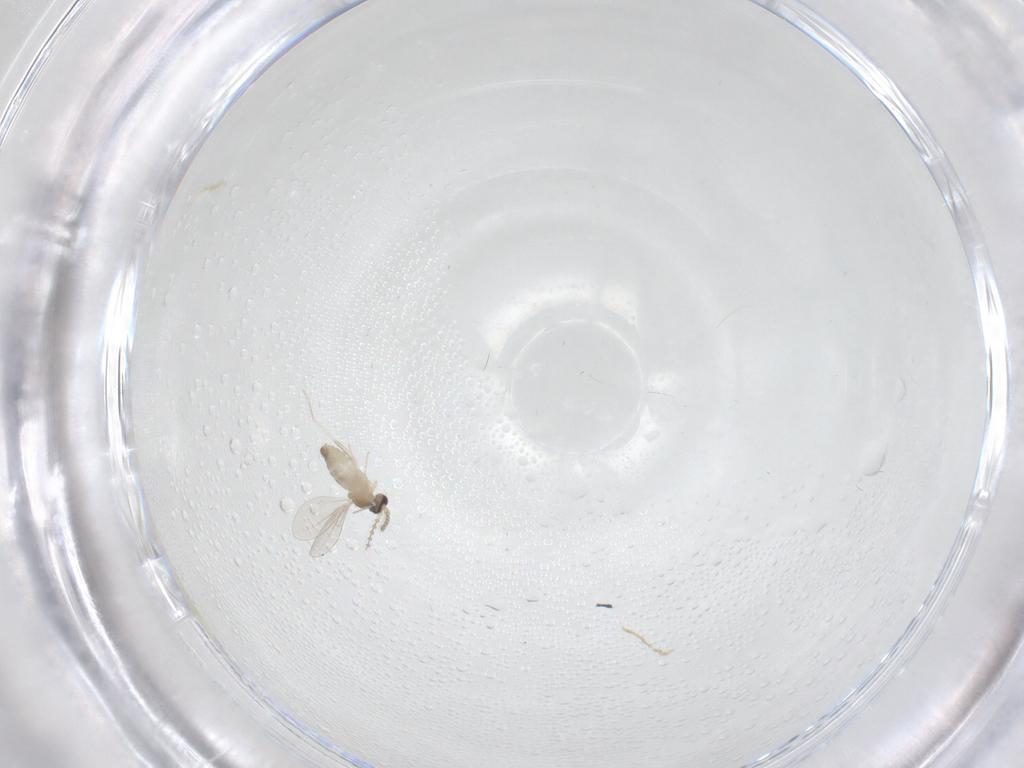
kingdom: Animalia
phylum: Arthropoda
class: Insecta
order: Diptera
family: Cecidomyiidae
